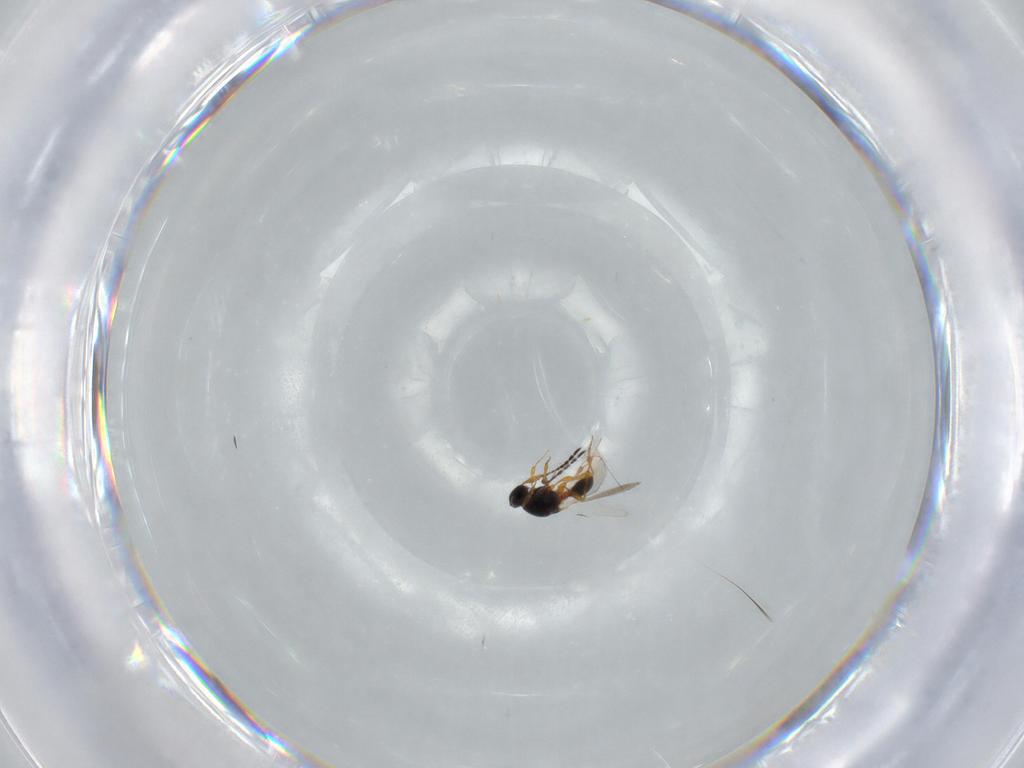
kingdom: Animalia
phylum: Arthropoda
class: Insecta
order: Hymenoptera
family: Platygastridae
